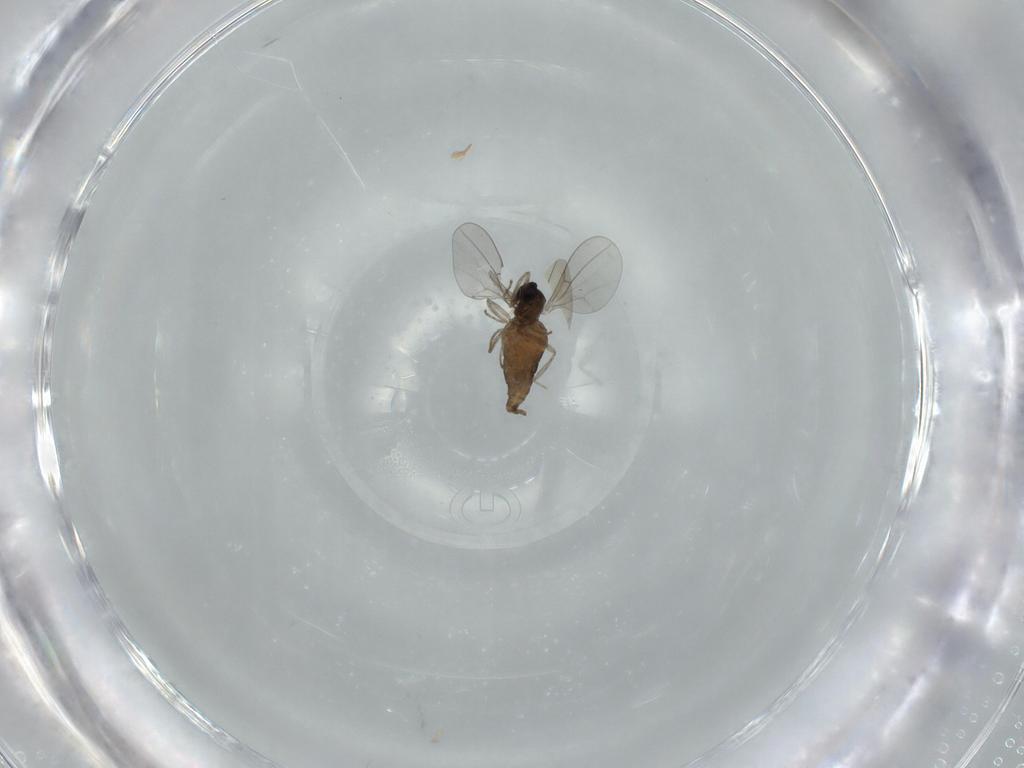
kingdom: Animalia
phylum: Arthropoda
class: Insecta
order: Diptera
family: Cecidomyiidae
